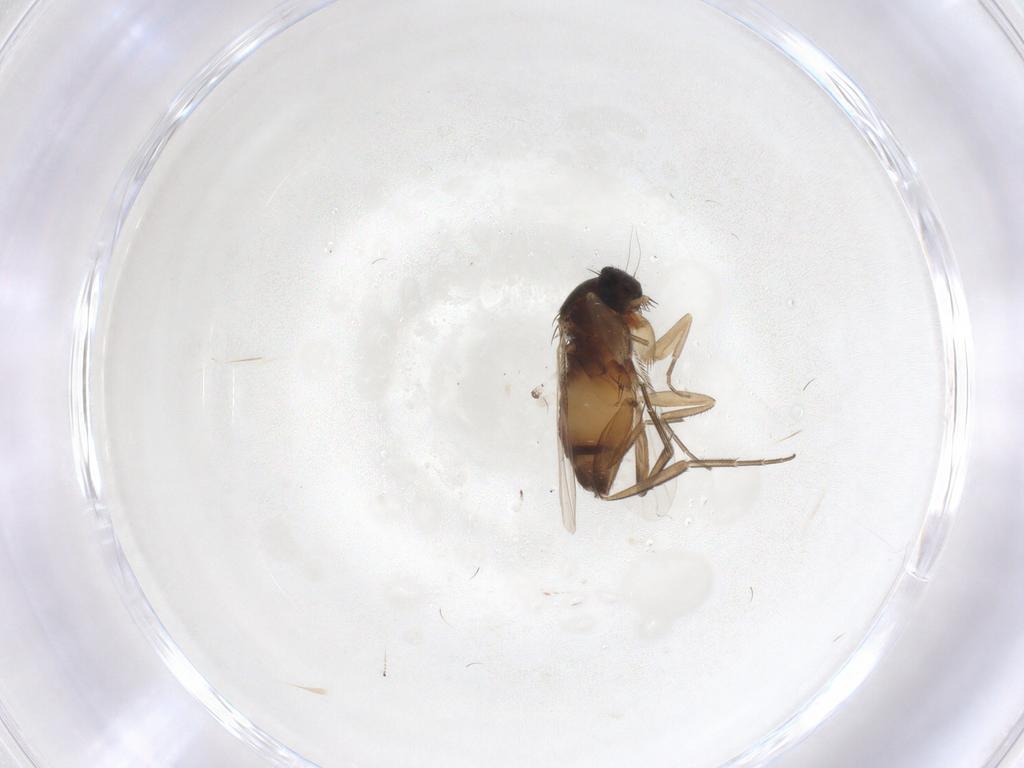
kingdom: Animalia
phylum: Arthropoda
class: Insecta
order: Diptera
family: Phoridae
